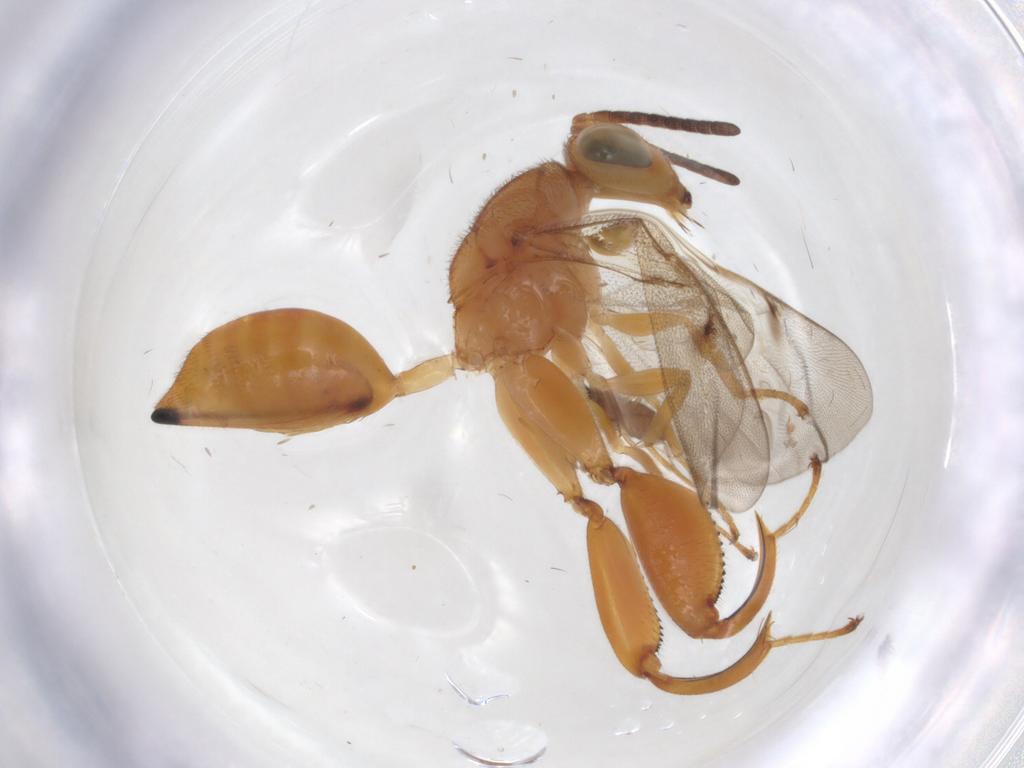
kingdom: Animalia
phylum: Arthropoda
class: Insecta
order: Hymenoptera
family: Chalcididae
